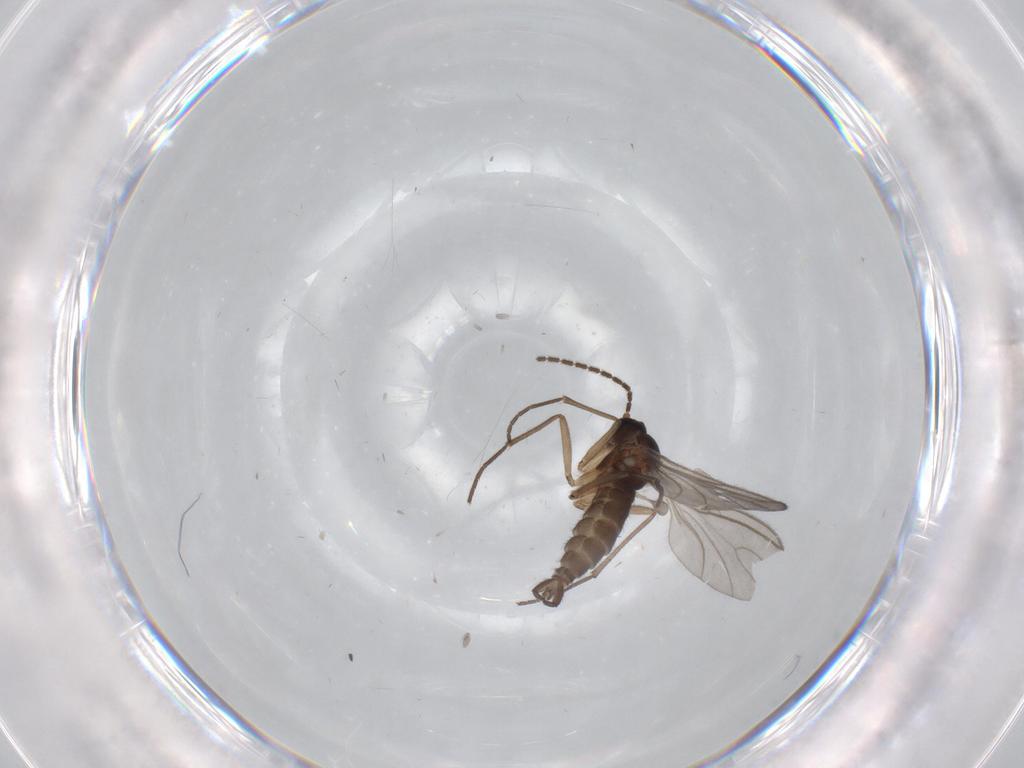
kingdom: Animalia
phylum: Arthropoda
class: Insecta
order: Diptera
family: Sciaridae
